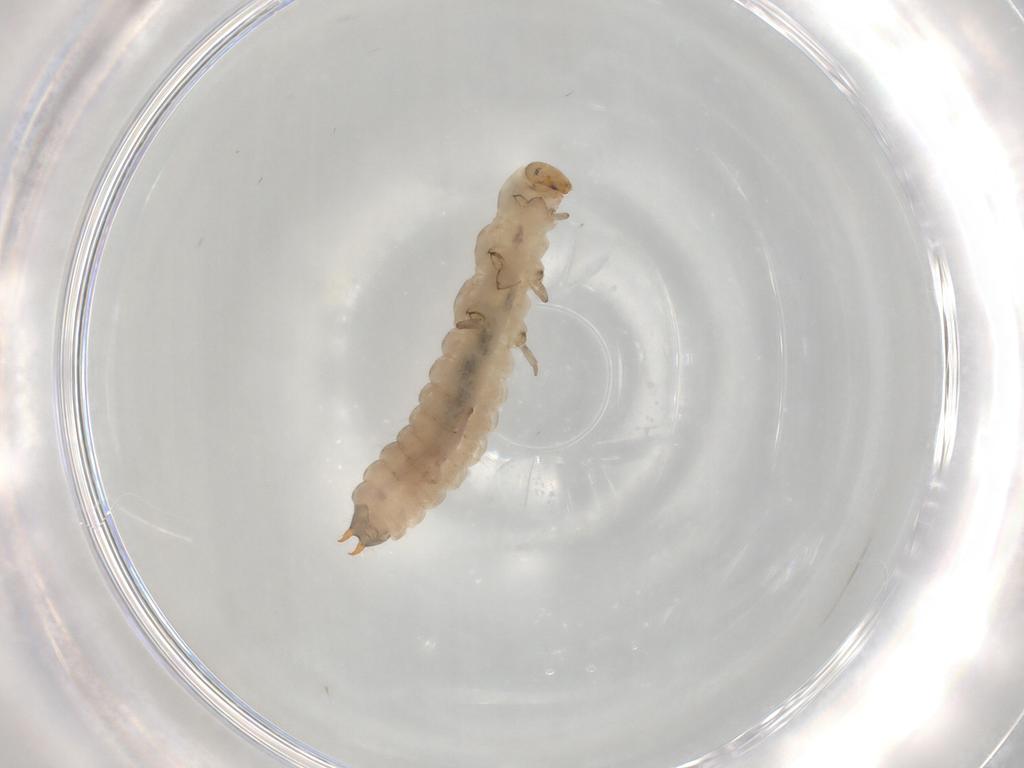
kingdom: Animalia
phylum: Arthropoda
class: Insecta
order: Coleoptera
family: Melyridae
